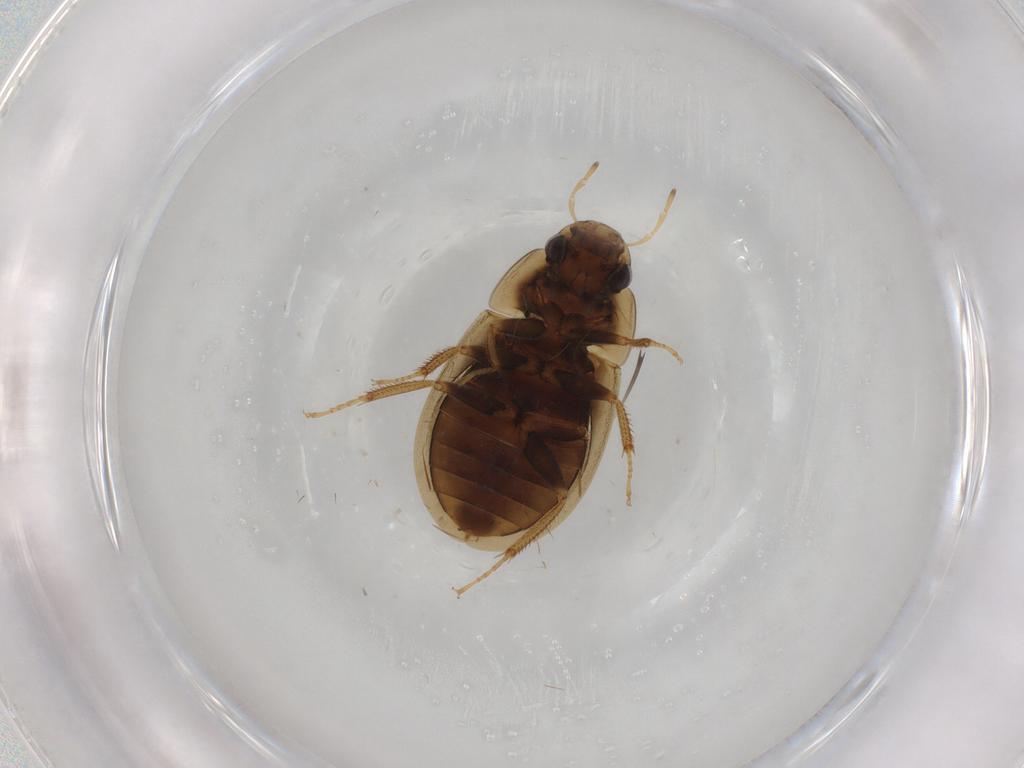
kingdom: Animalia
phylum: Arthropoda
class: Insecta
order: Coleoptera
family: Hydrophilidae
